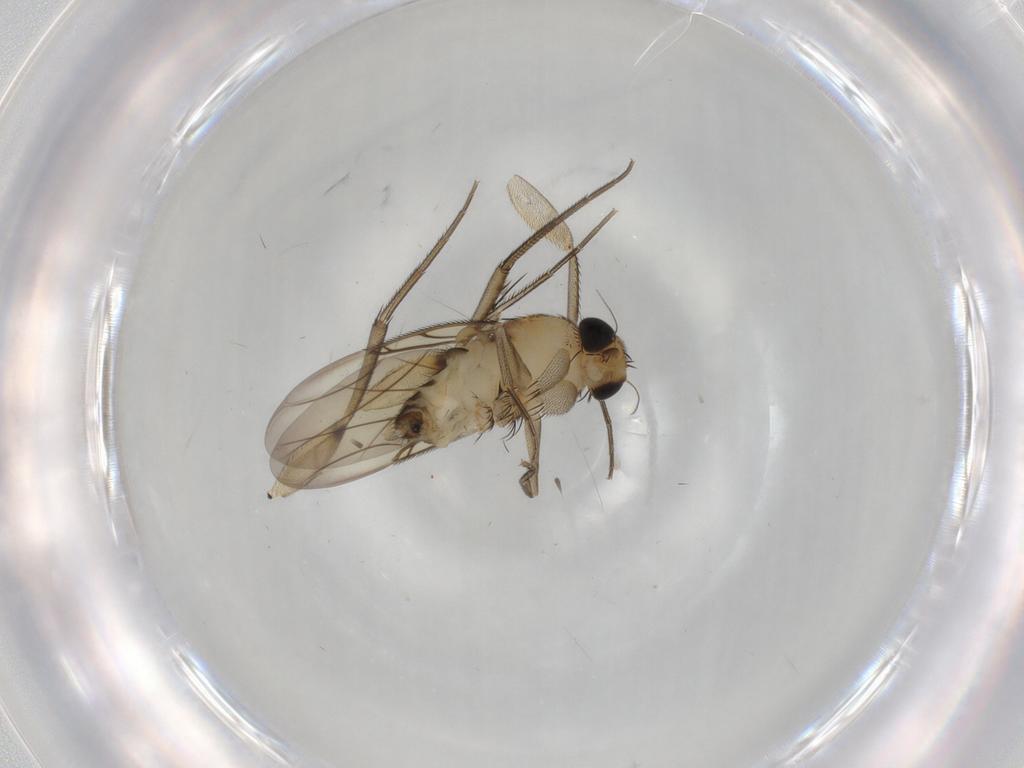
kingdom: Animalia
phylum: Arthropoda
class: Insecta
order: Diptera
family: Phoridae
